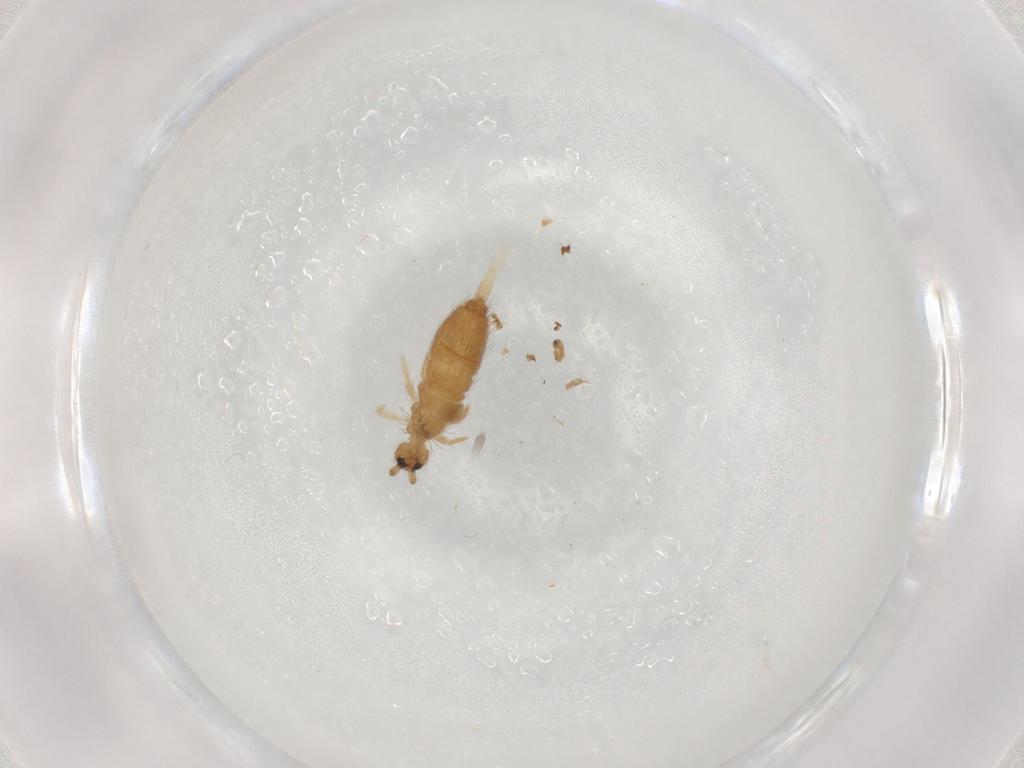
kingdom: Animalia
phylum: Arthropoda
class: Collembola
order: Entomobryomorpha
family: Entomobryidae
